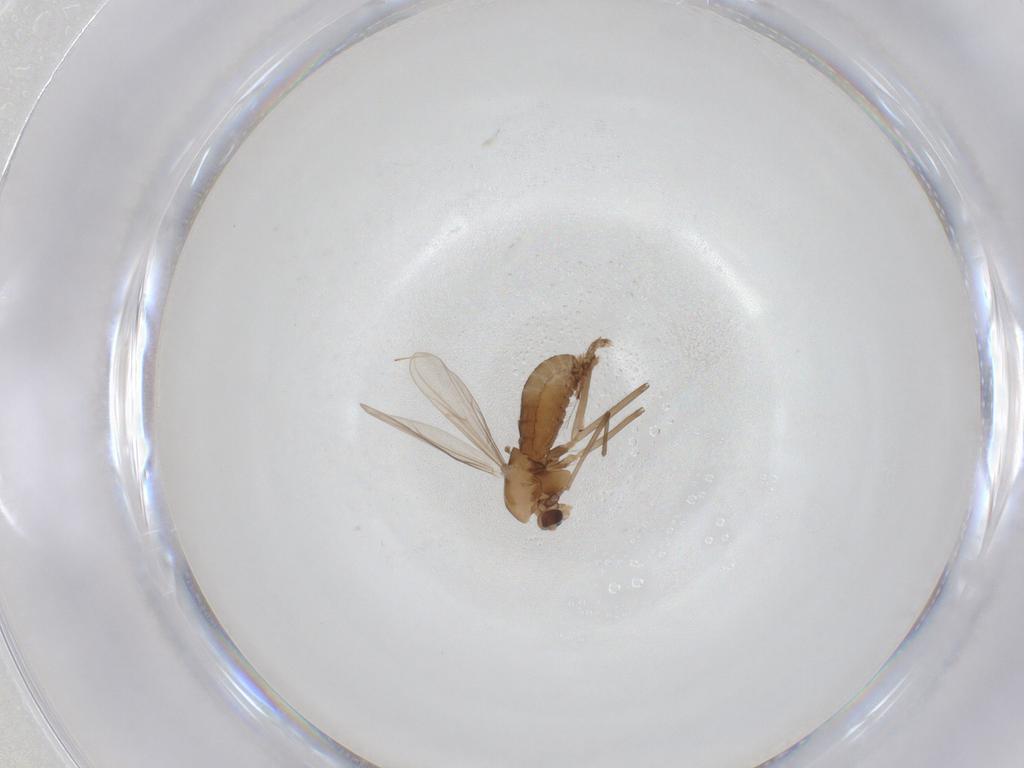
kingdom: Animalia
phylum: Arthropoda
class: Insecta
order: Diptera
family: Chironomidae
